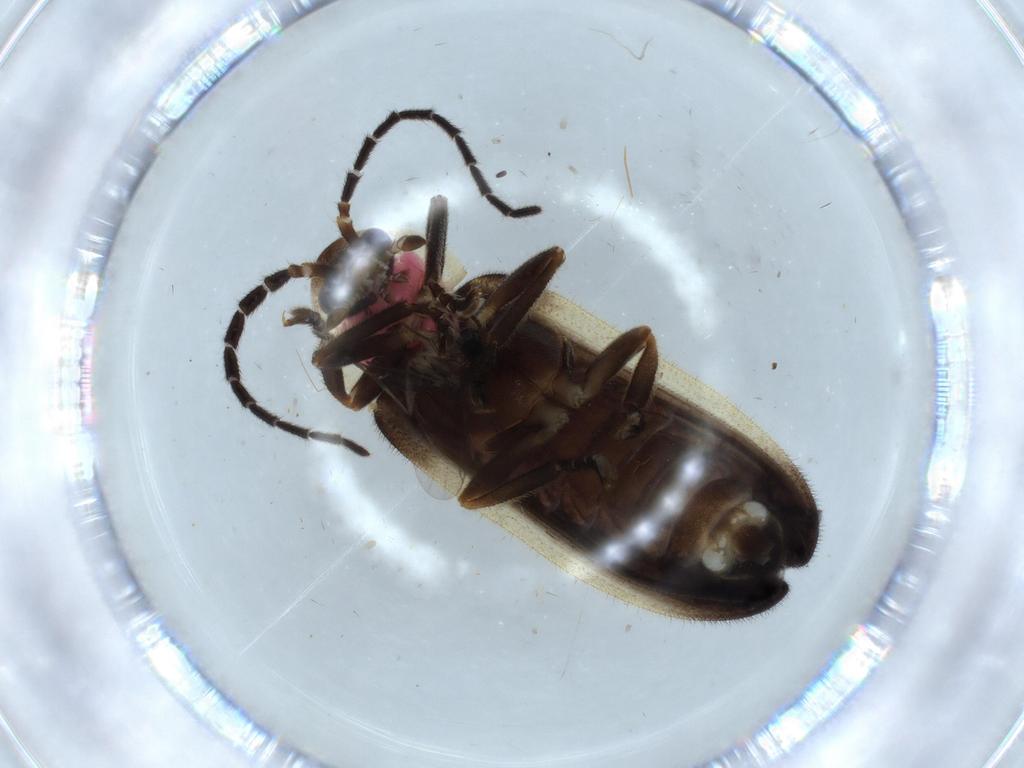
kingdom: Animalia
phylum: Arthropoda
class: Insecta
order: Coleoptera
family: Lampyridae
